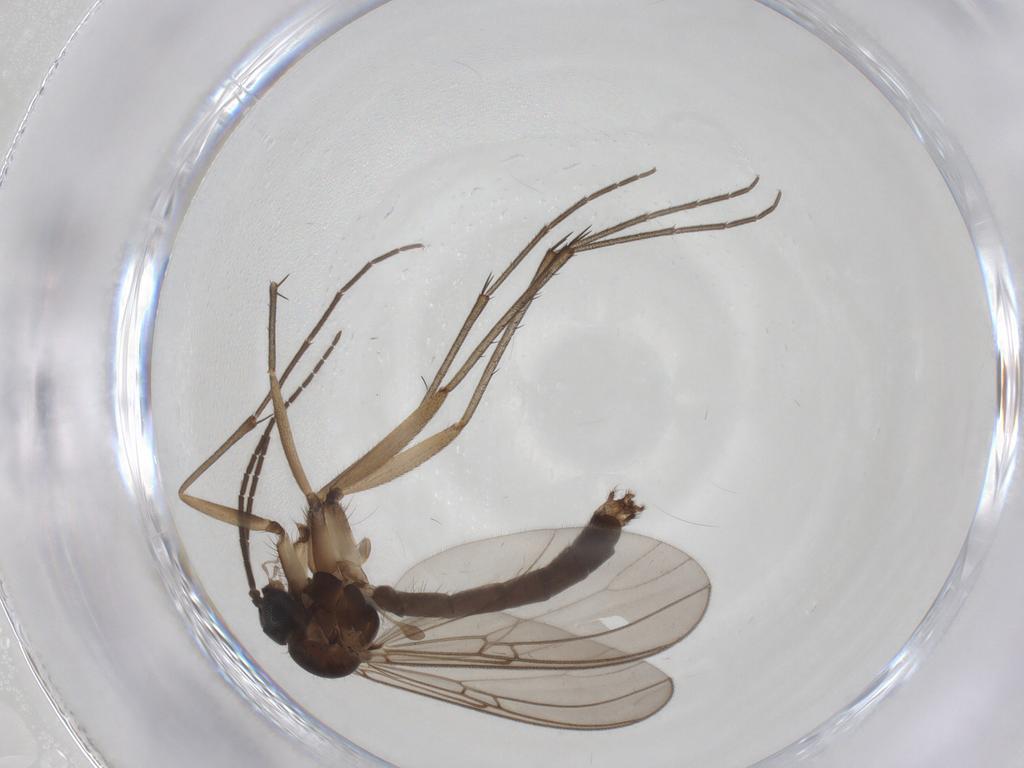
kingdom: Animalia
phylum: Arthropoda
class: Insecta
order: Diptera
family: Mycetophilidae
